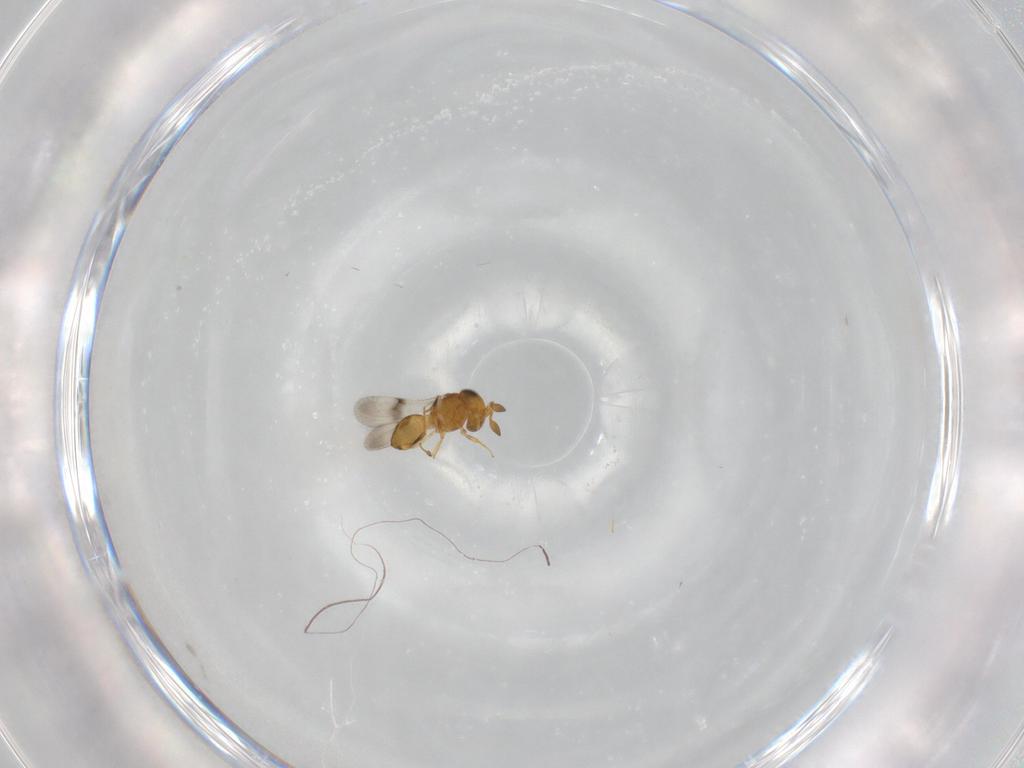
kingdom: Animalia
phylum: Arthropoda
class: Insecta
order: Hymenoptera
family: Scelionidae
